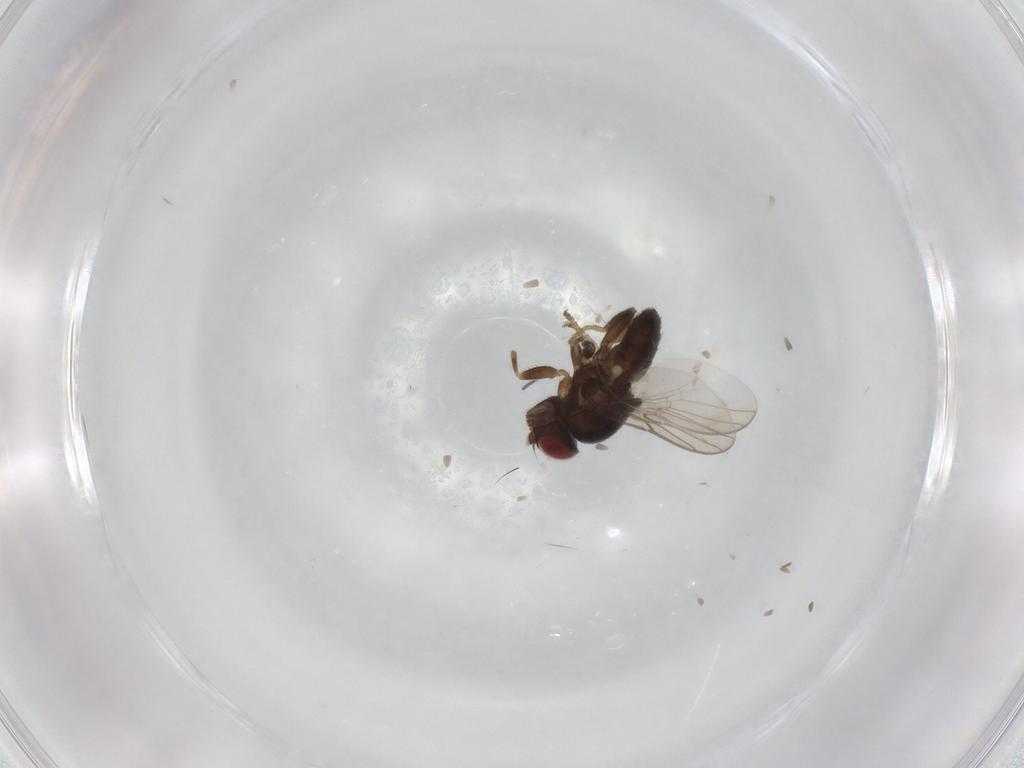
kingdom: Animalia
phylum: Arthropoda
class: Insecta
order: Diptera
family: Chloropidae
